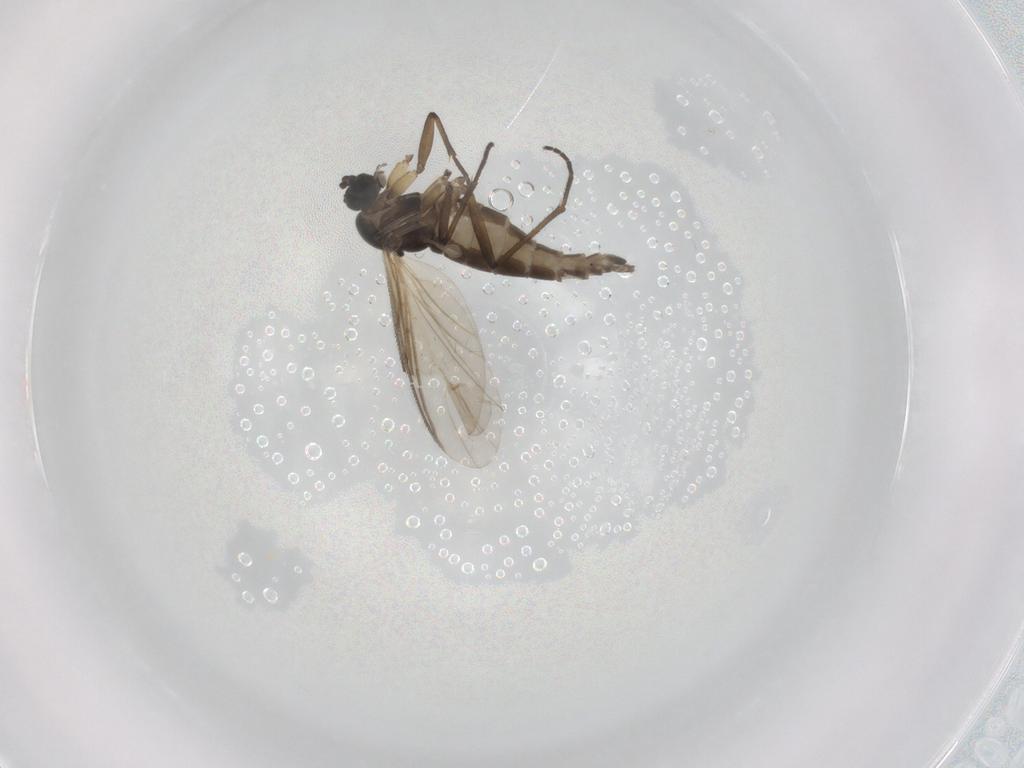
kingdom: Animalia
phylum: Arthropoda
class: Insecta
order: Diptera
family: Sciaridae
